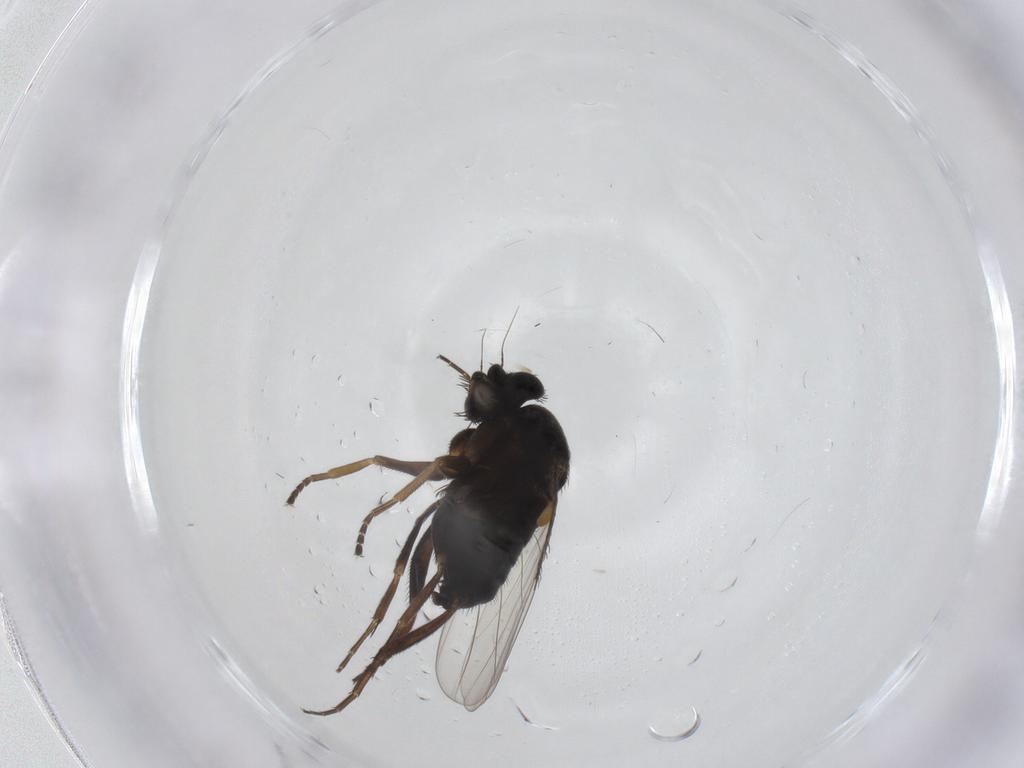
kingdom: Animalia
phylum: Arthropoda
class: Insecta
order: Diptera
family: Phoridae
